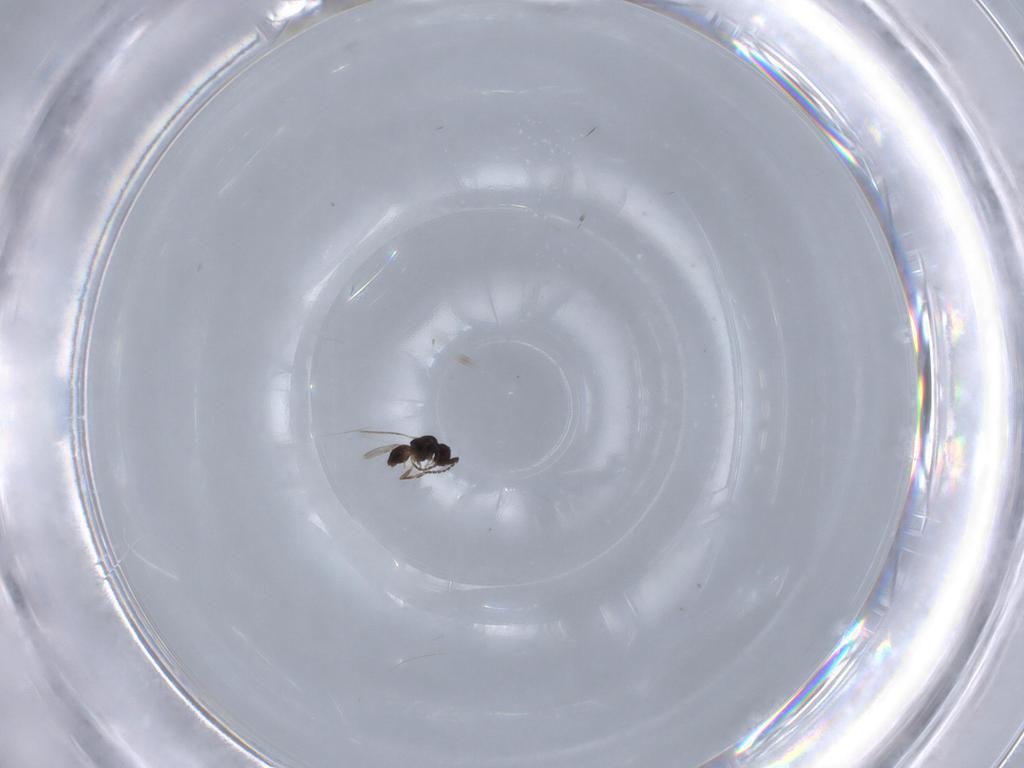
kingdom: Animalia
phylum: Arthropoda
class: Insecta
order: Hymenoptera
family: Ceraphronidae
